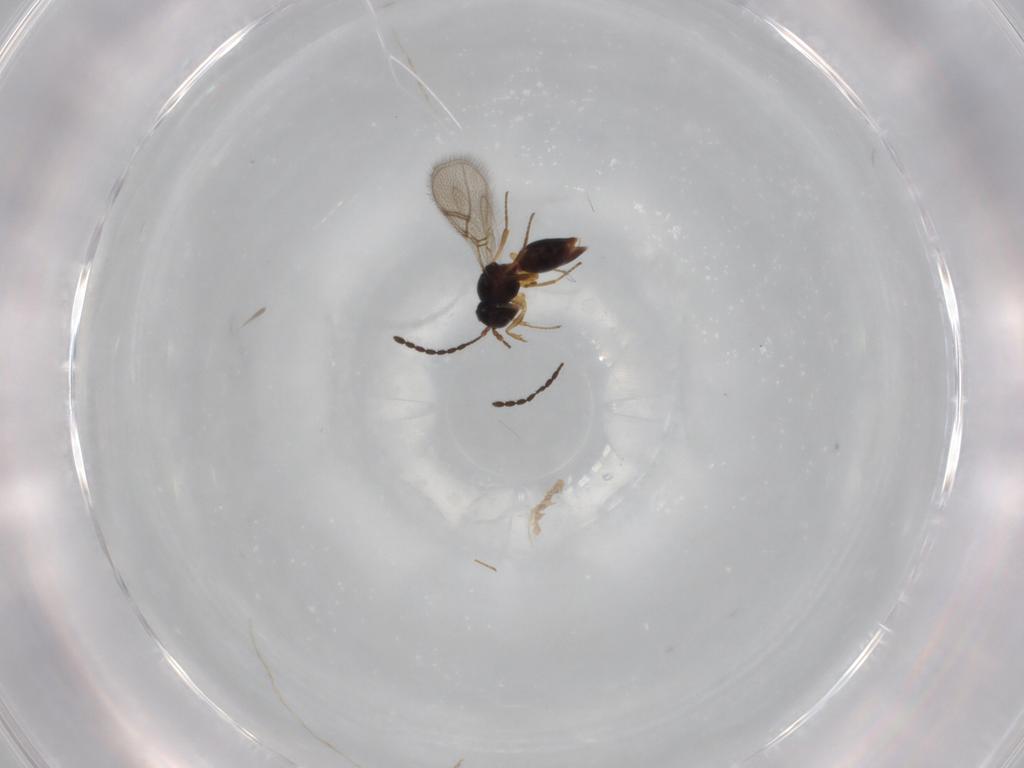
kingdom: Animalia
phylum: Arthropoda
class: Insecta
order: Hymenoptera
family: Figitidae
